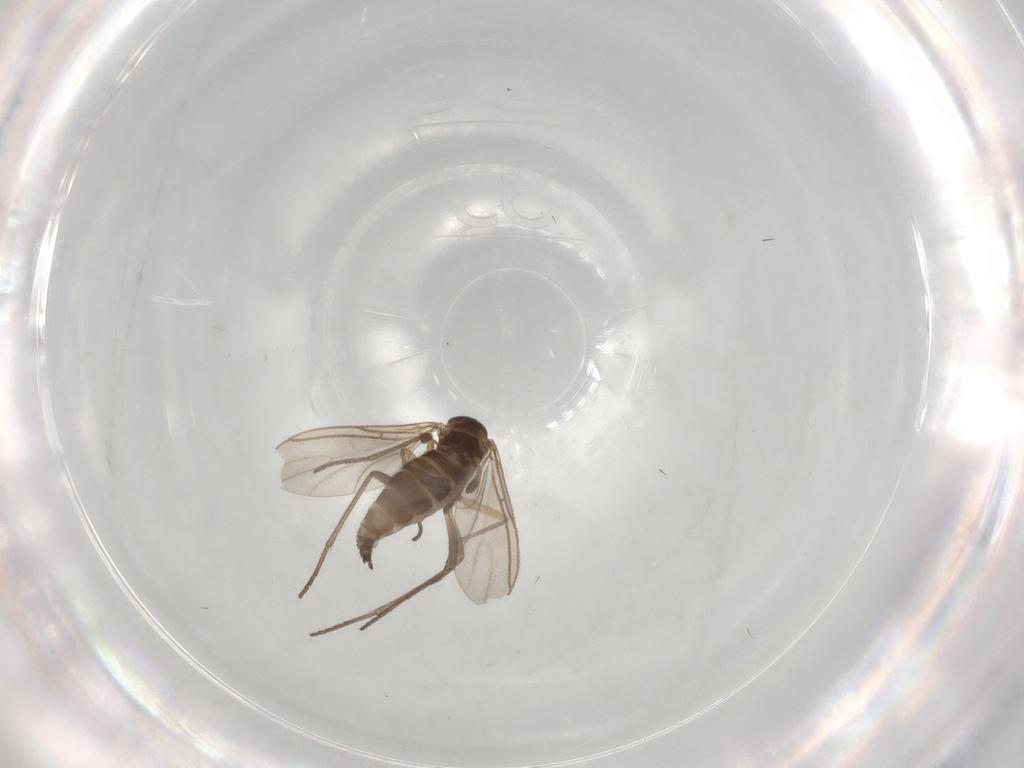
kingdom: Animalia
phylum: Arthropoda
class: Insecta
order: Diptera
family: Sciaridae
